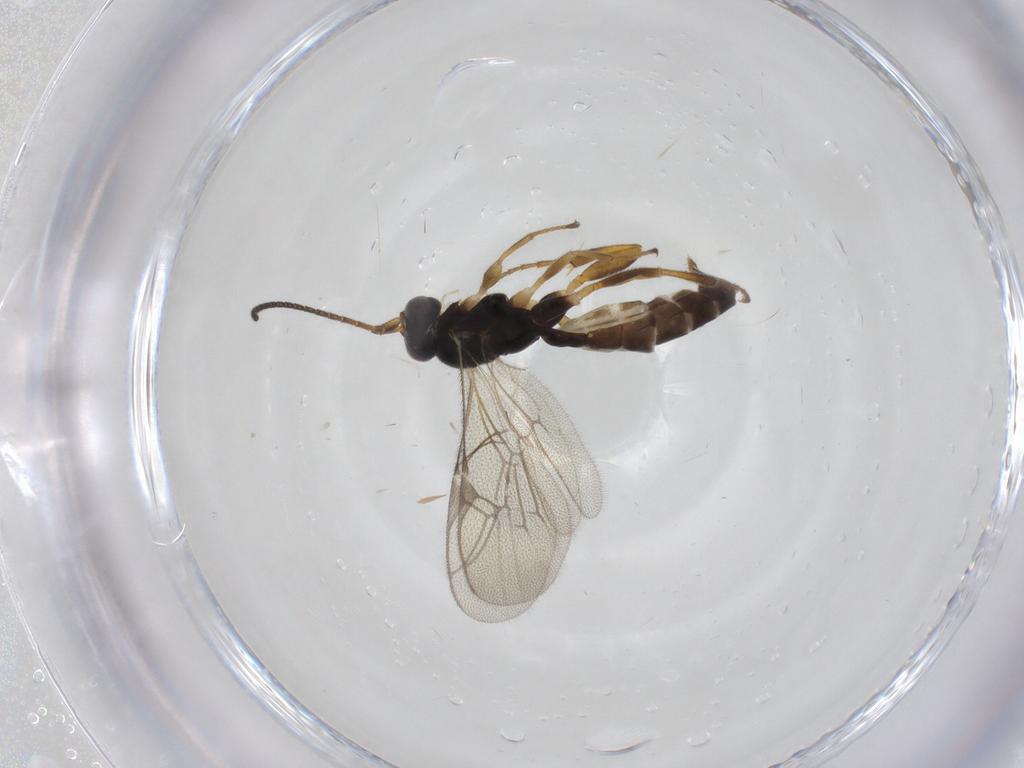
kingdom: Animalia
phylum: Arthropoda
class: Insecta
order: Hymenoptera
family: Ichneumonidae
